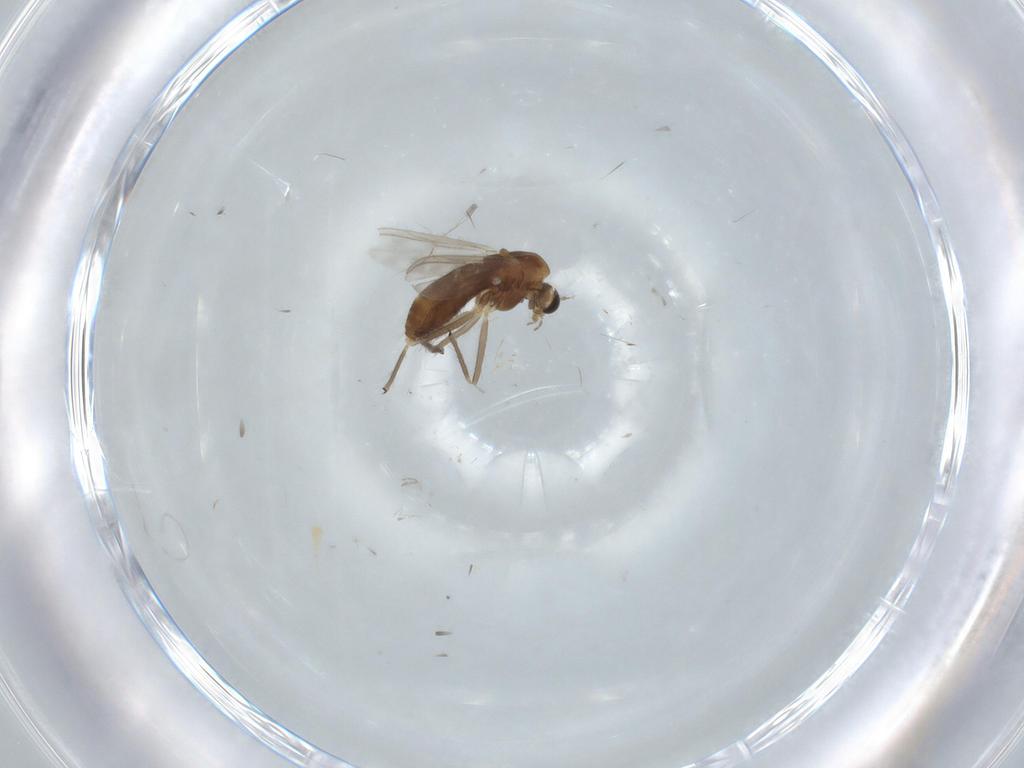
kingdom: Animalia
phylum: Arthropoda
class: Insecta
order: Diptera
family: Chironomidae
